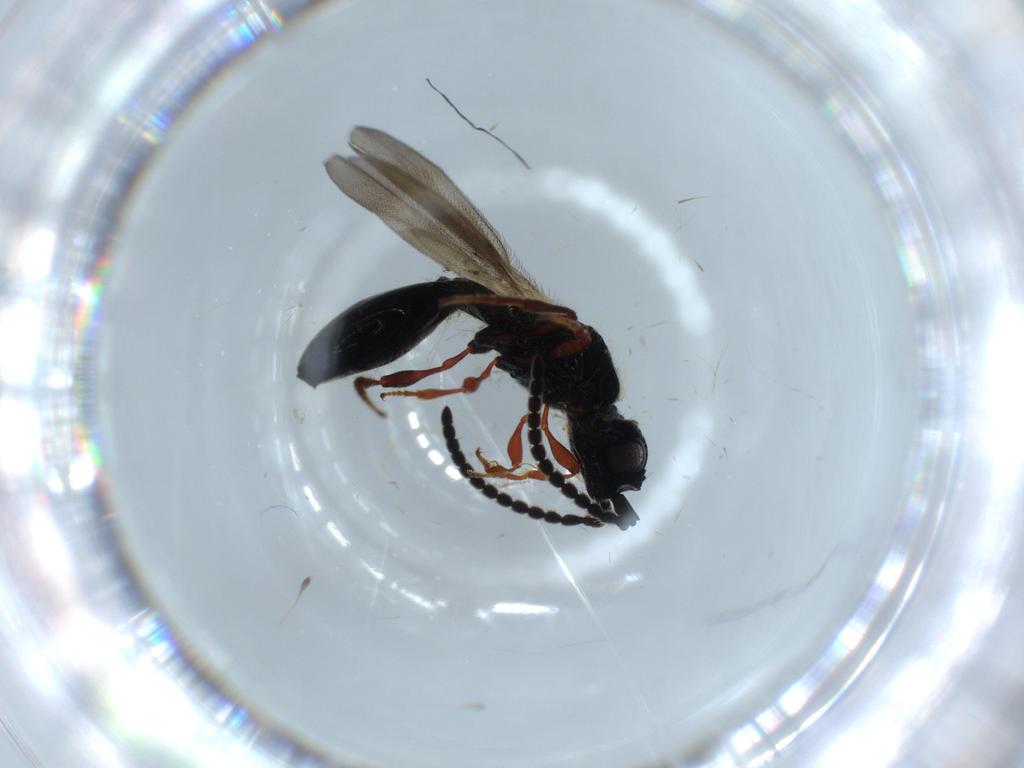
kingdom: Animalia
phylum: Arthropoda
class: Insecta
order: Hymenoptera
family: Diapriidae
